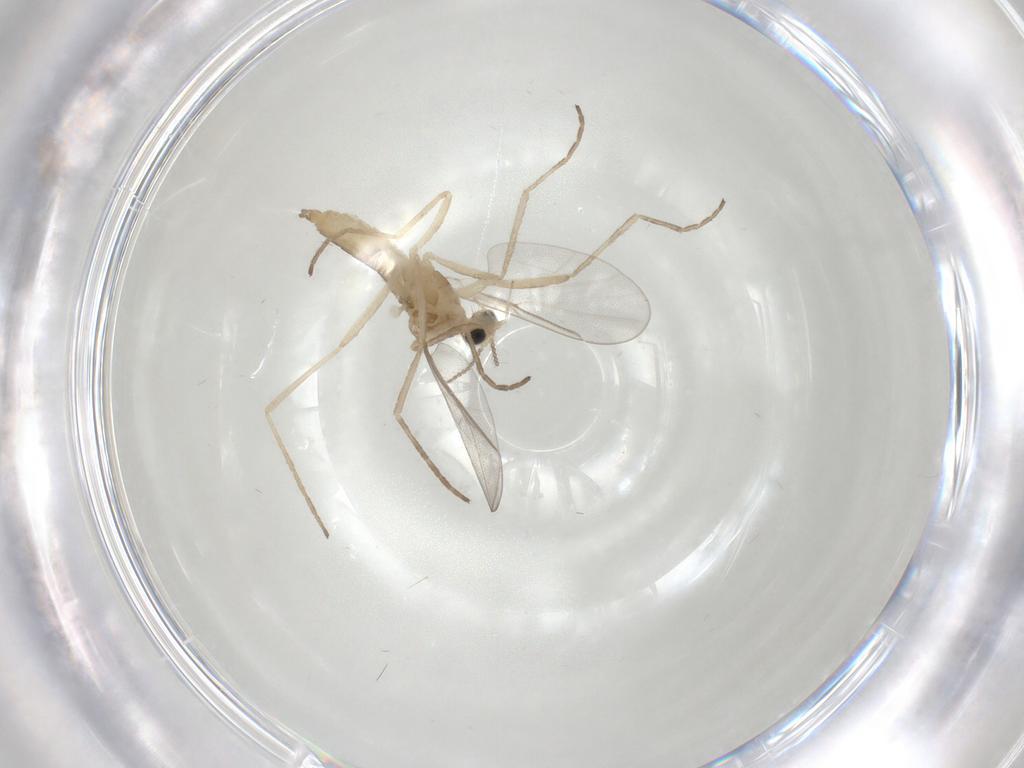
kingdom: Animalia
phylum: Arthropoda
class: Insecta
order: Diptera
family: Cecidomyiidae
